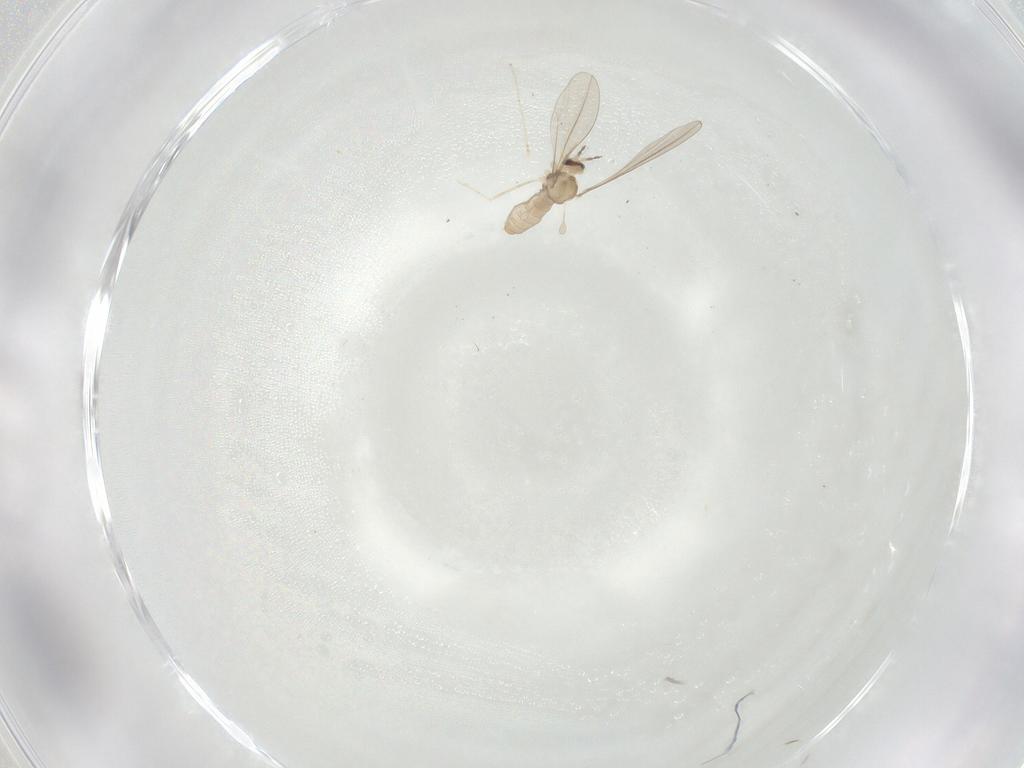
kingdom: Animalia
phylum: Arthropoda
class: Insecta
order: Diptera
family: Cecidomyiidae
